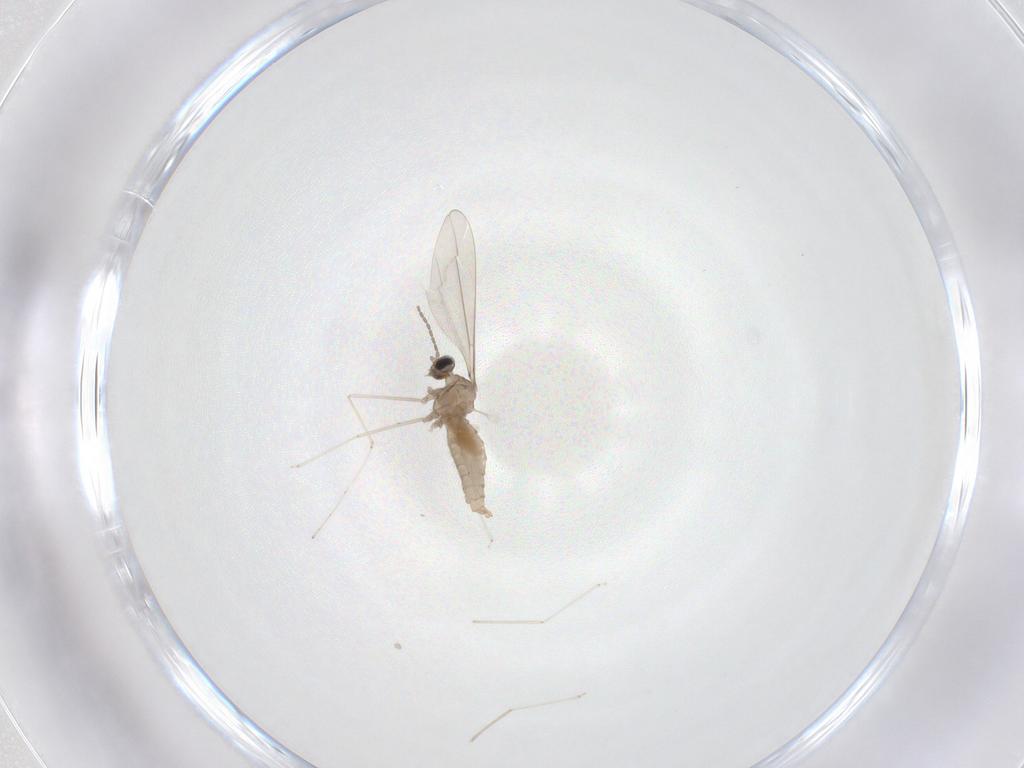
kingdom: Animalia
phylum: Arthropoda
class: Insecta
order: Diptera
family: Cecidomyiidae
